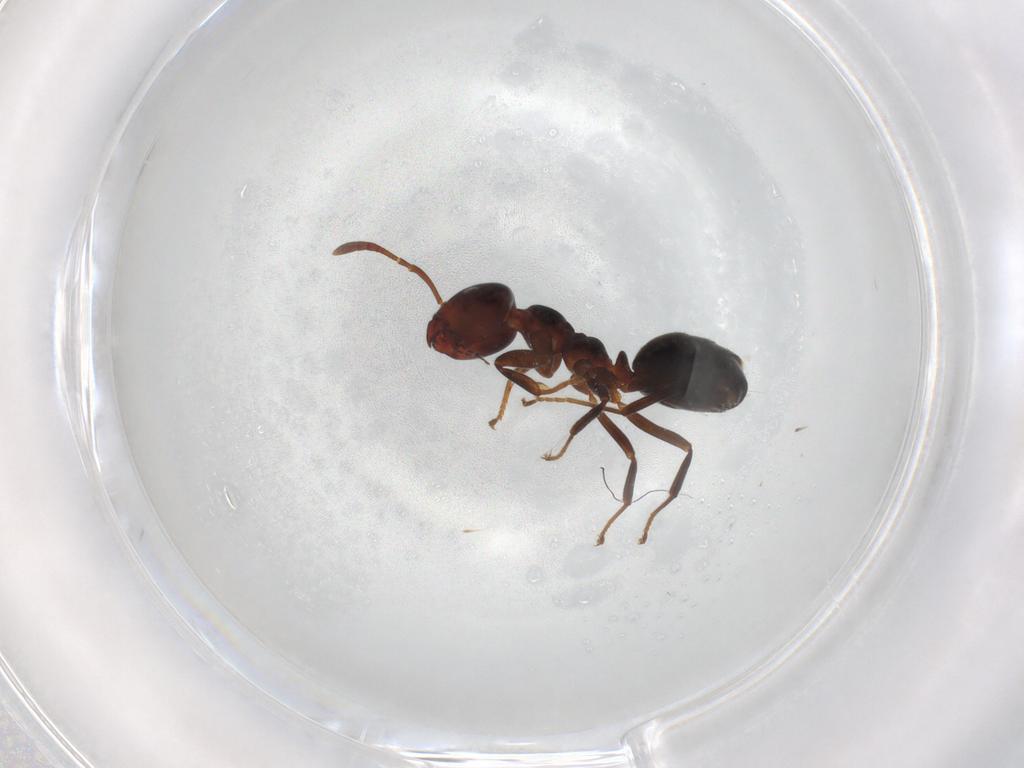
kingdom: Animalia
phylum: Arthropoda
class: Insecta
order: Hymenoptera
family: Formicidae
